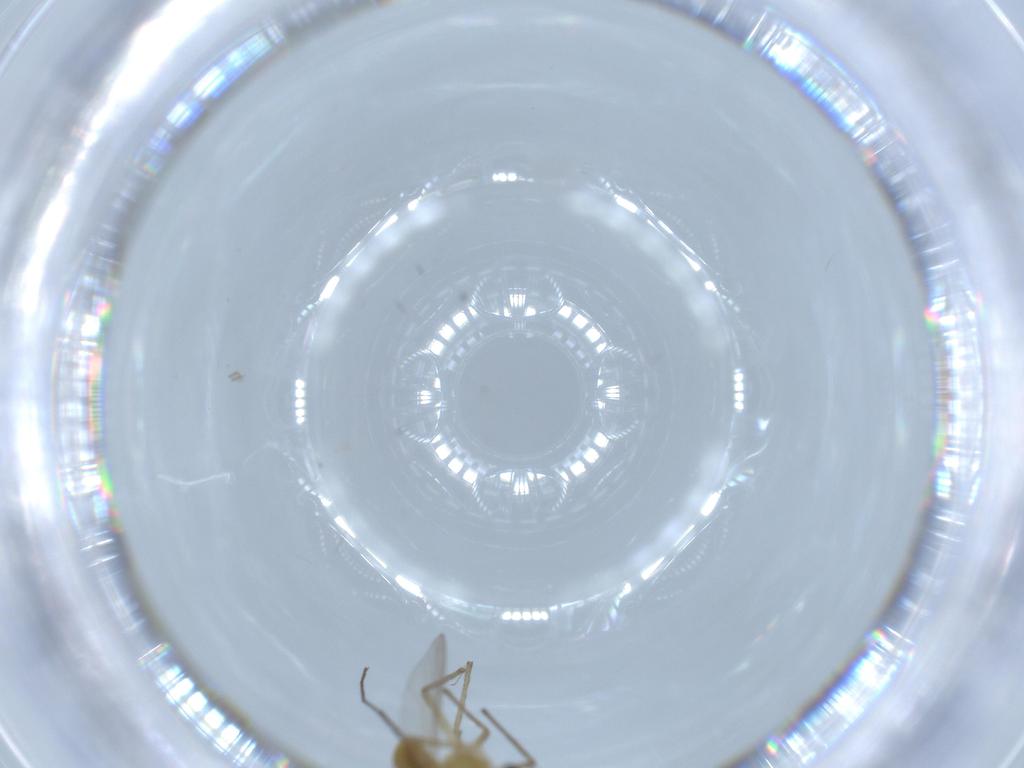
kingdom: Animalia
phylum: Arthropoda
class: Insecta
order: Diptera
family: Chironomidae
